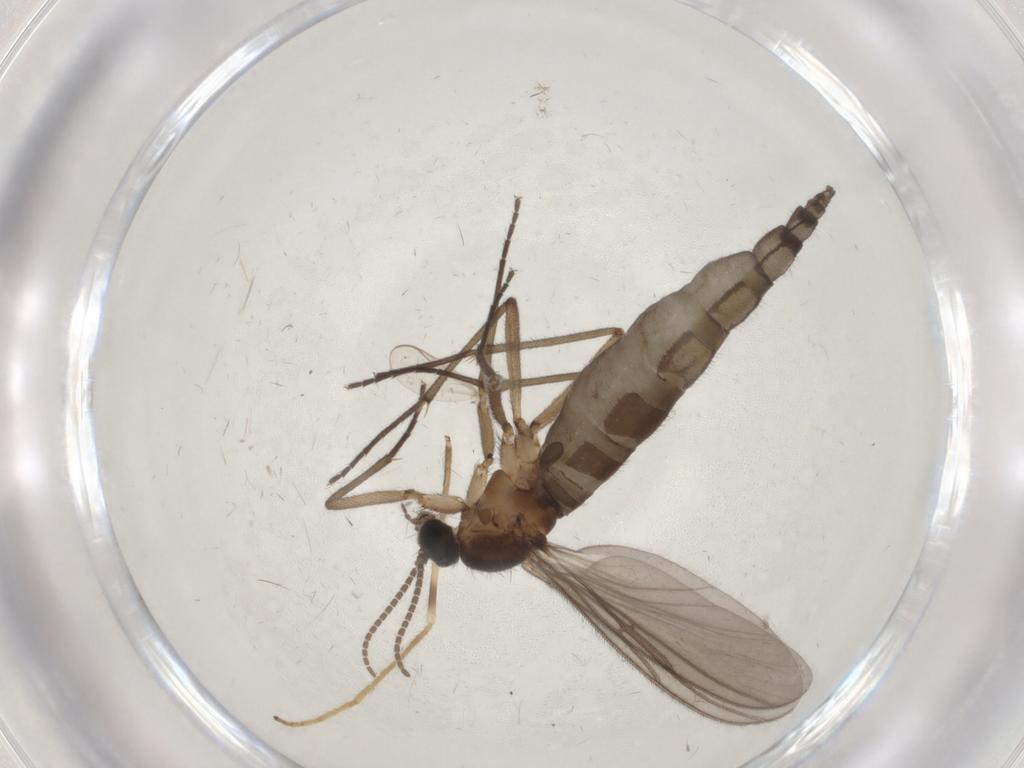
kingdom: Animalia
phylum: Arthropoda
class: Insecta
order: Diptera
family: Limoniidae
